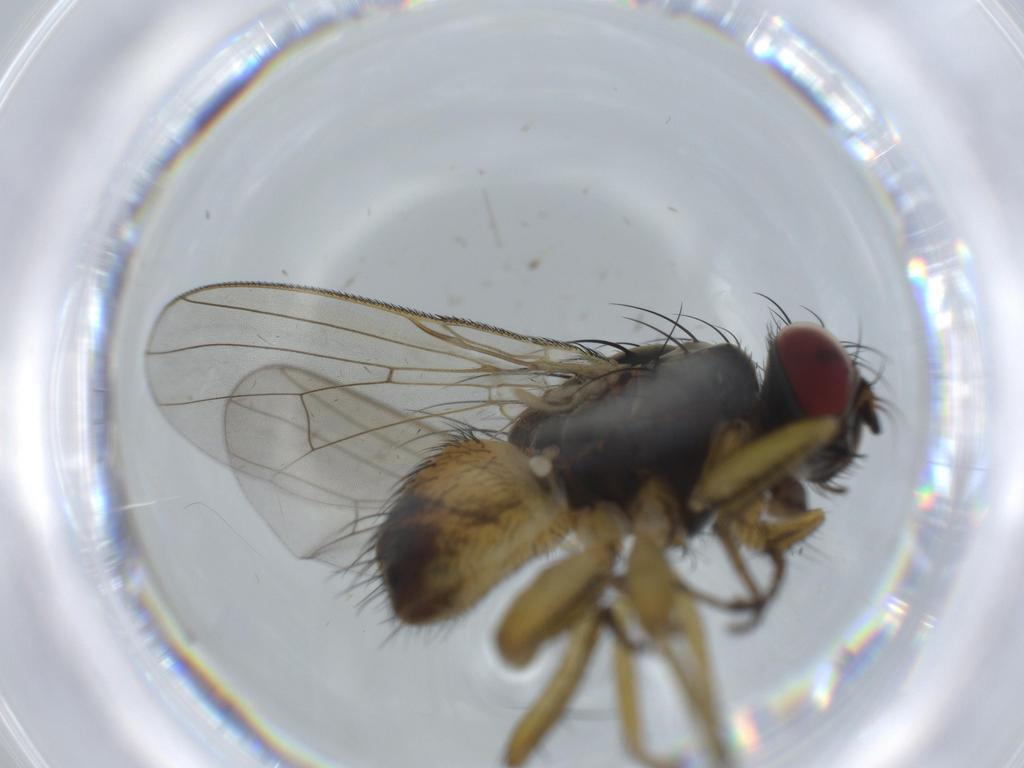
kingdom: Animalia
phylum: Arthropoda
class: Insecta
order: Diptera
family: Muscidae
